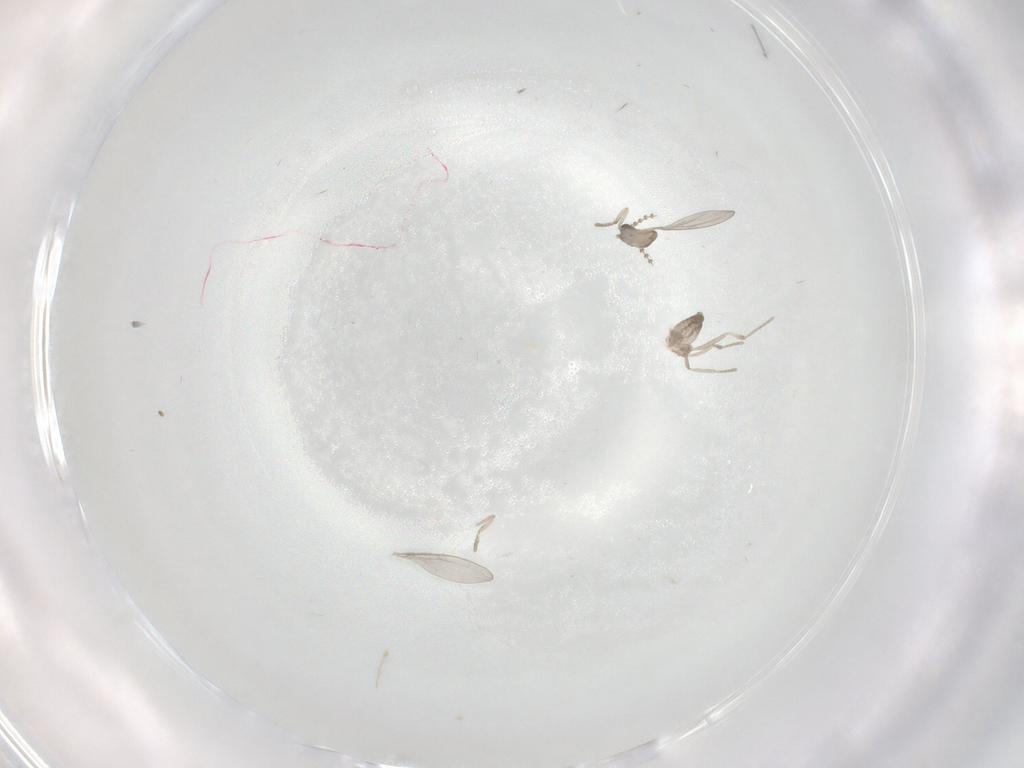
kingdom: Animalia
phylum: Arthropoda
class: Insecta
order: Diptera
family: Cecidomyiidae
